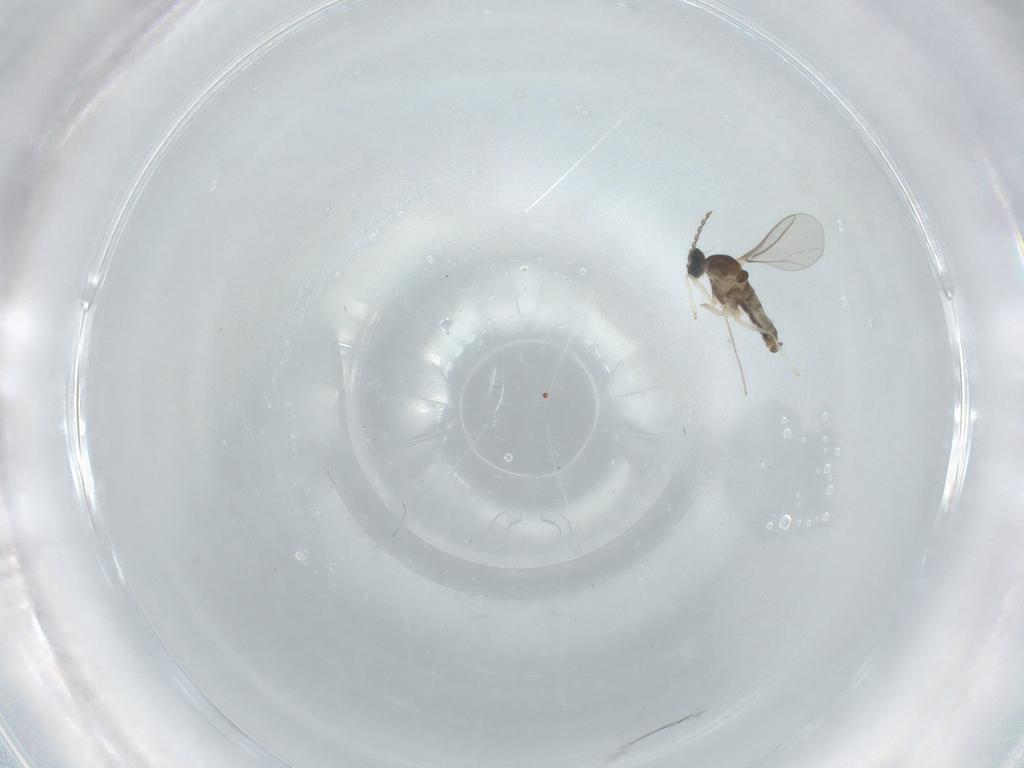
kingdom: Animalia
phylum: Arthropoda
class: Insecta
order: Diptera
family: Cecidomyiidae
